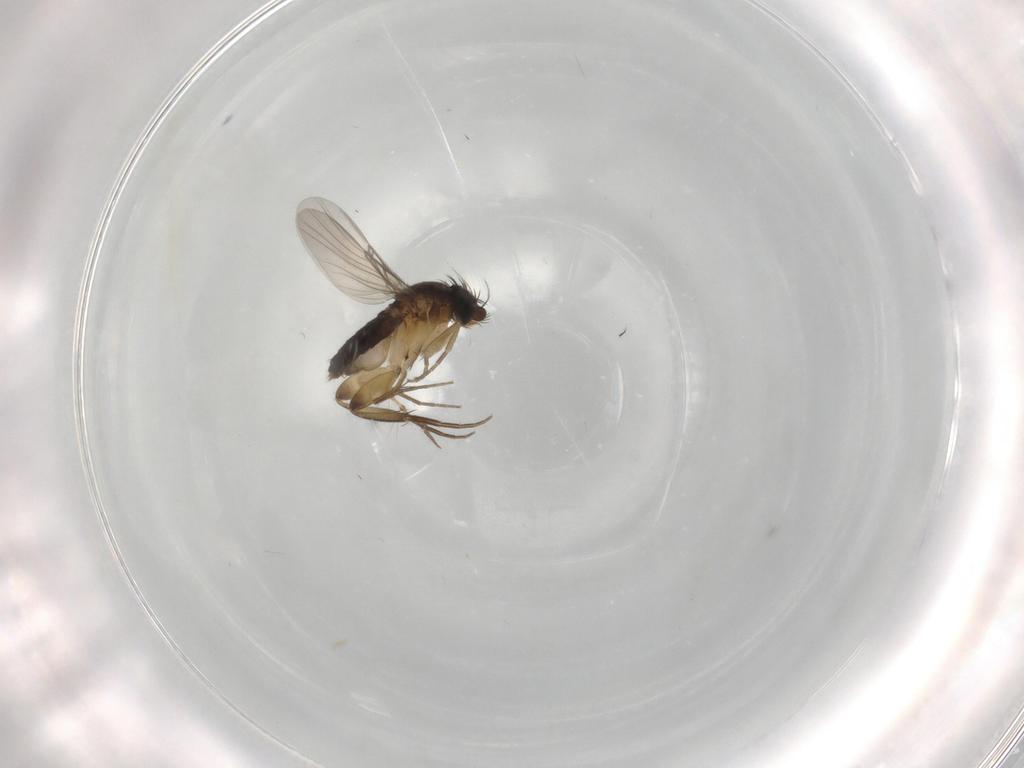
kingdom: Animalia
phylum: Arthropoda
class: Insecta
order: Diptera
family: Phoridae
